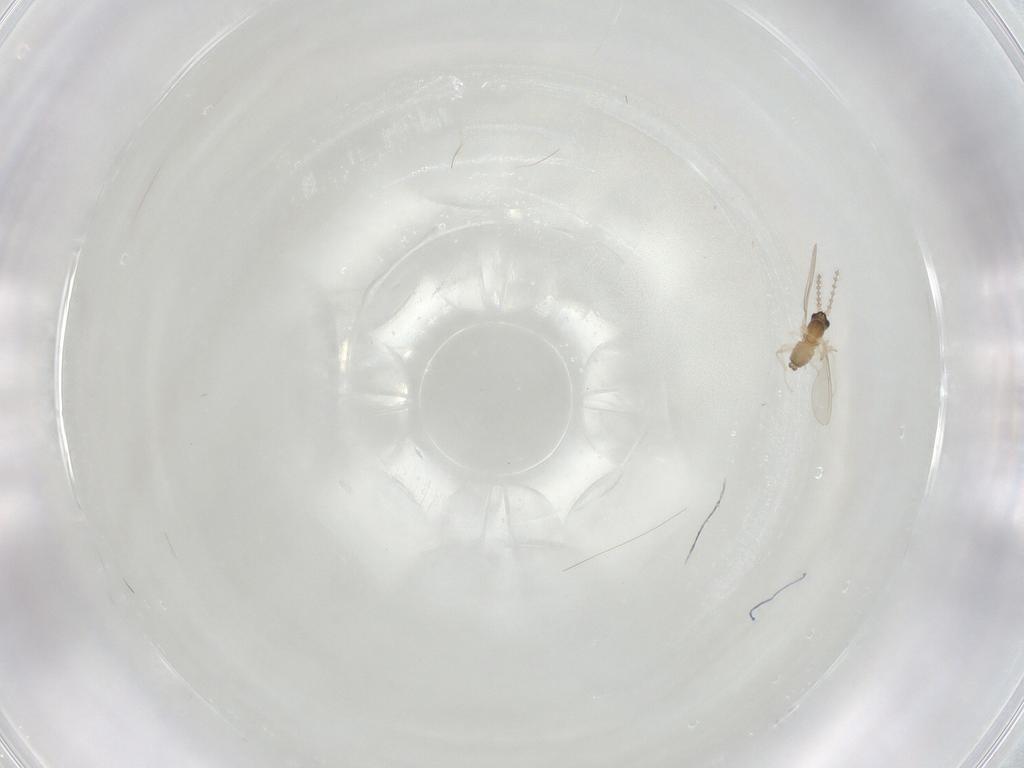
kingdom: Animalia
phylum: Arthropoda
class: Insecta
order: Diptera
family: Cecidomyiidae
